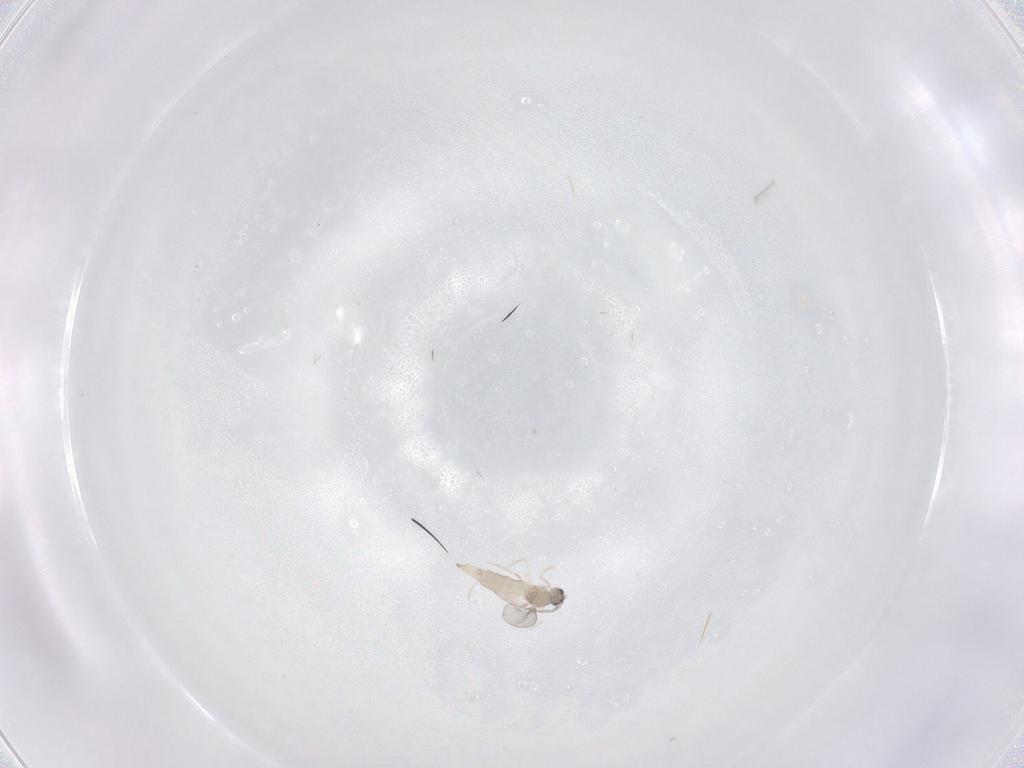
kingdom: Animalia
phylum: Arthropoda
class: Insecta
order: Diptera
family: Cecidomyiidae
